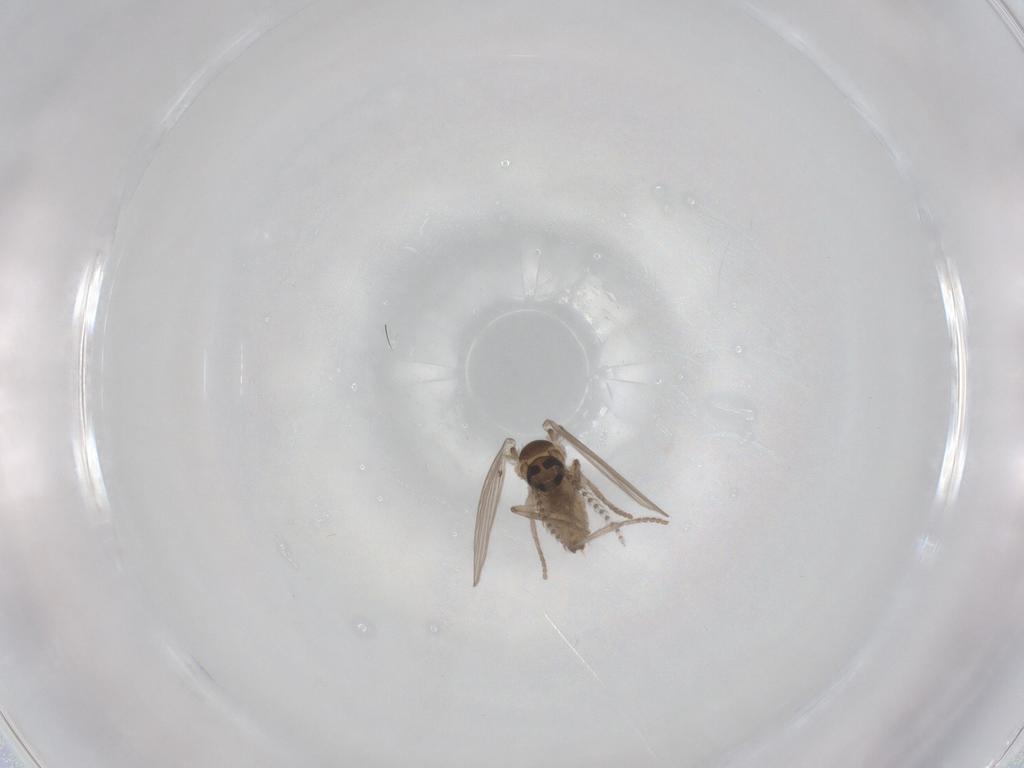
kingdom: Animalia
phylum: Arthropoda
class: Insecta
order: Diptera
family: Psychodidae
